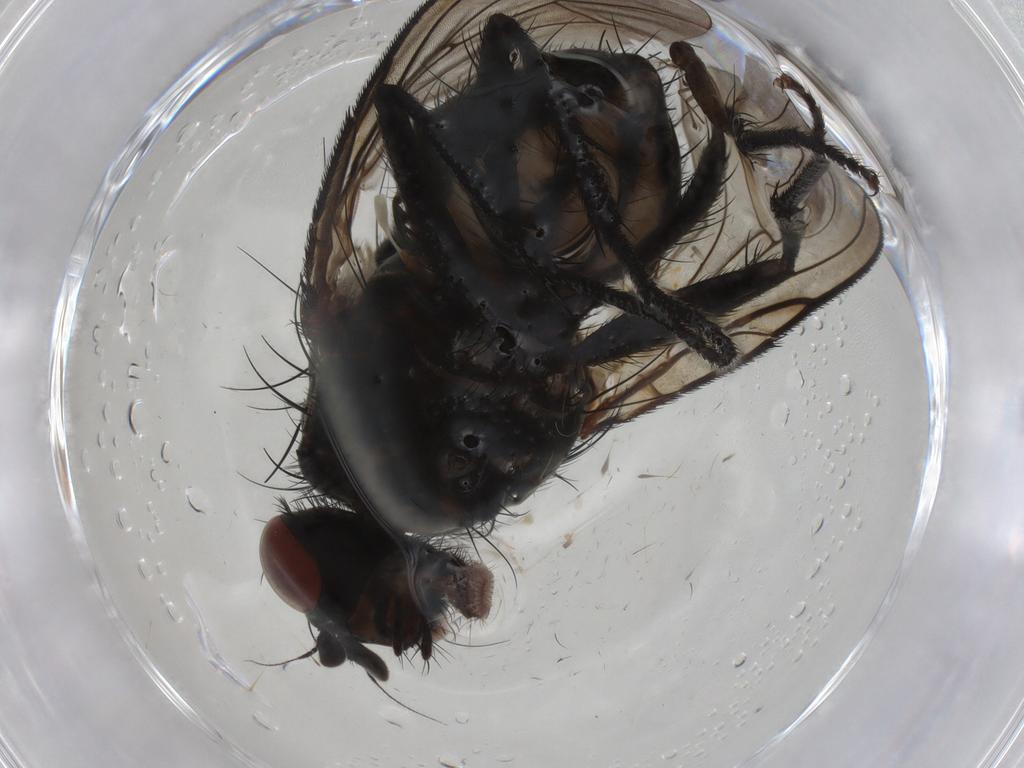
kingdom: Animalia
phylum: Arthropoda
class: Insecta
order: Diptera
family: Chironomidae
